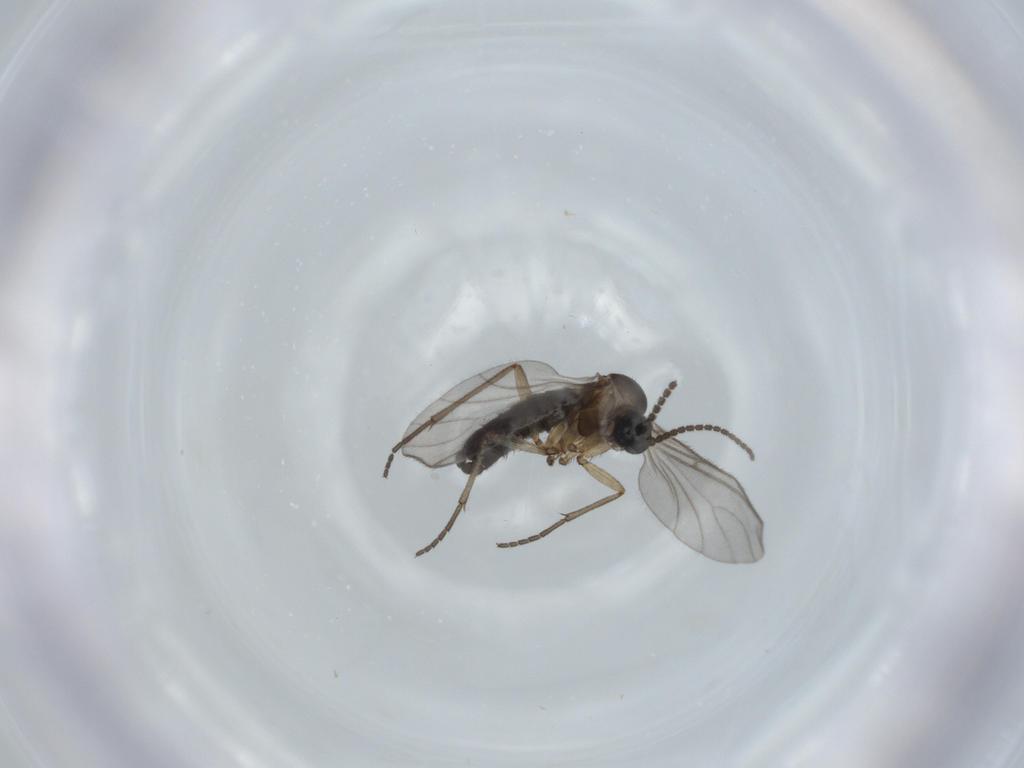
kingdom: Animalia
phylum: Arthropoda
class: Insecta
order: Diptera
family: Sciaridae
